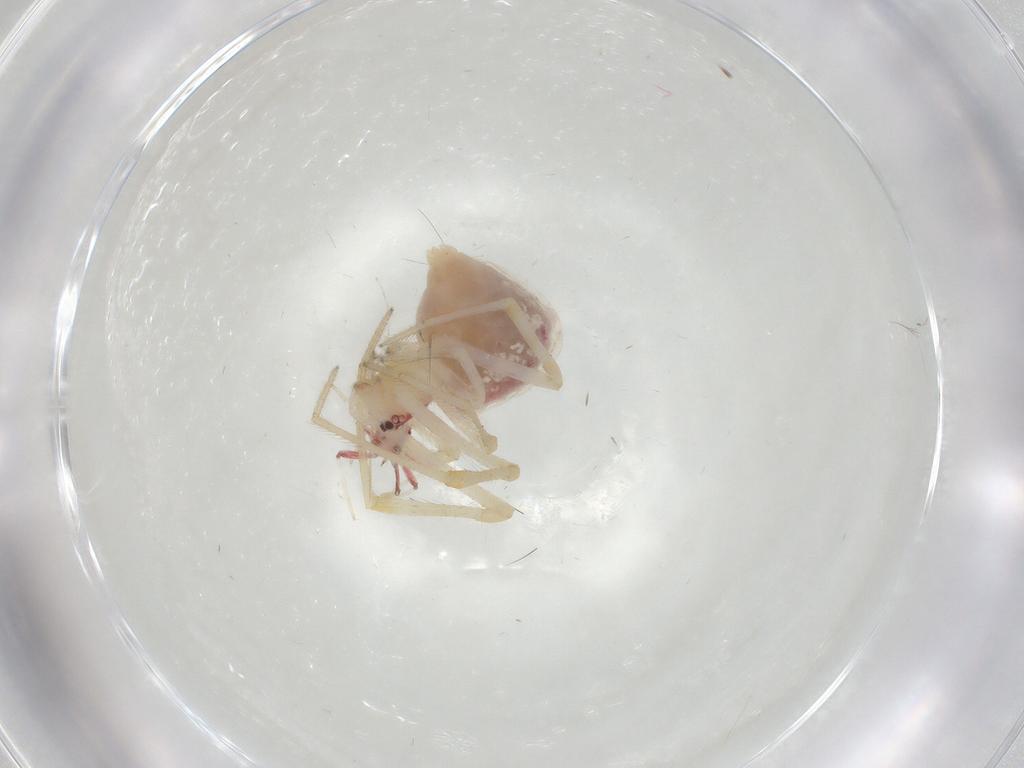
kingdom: Animalia
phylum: Arthropoda
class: Arachnida
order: Araneae
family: Theridiidae
